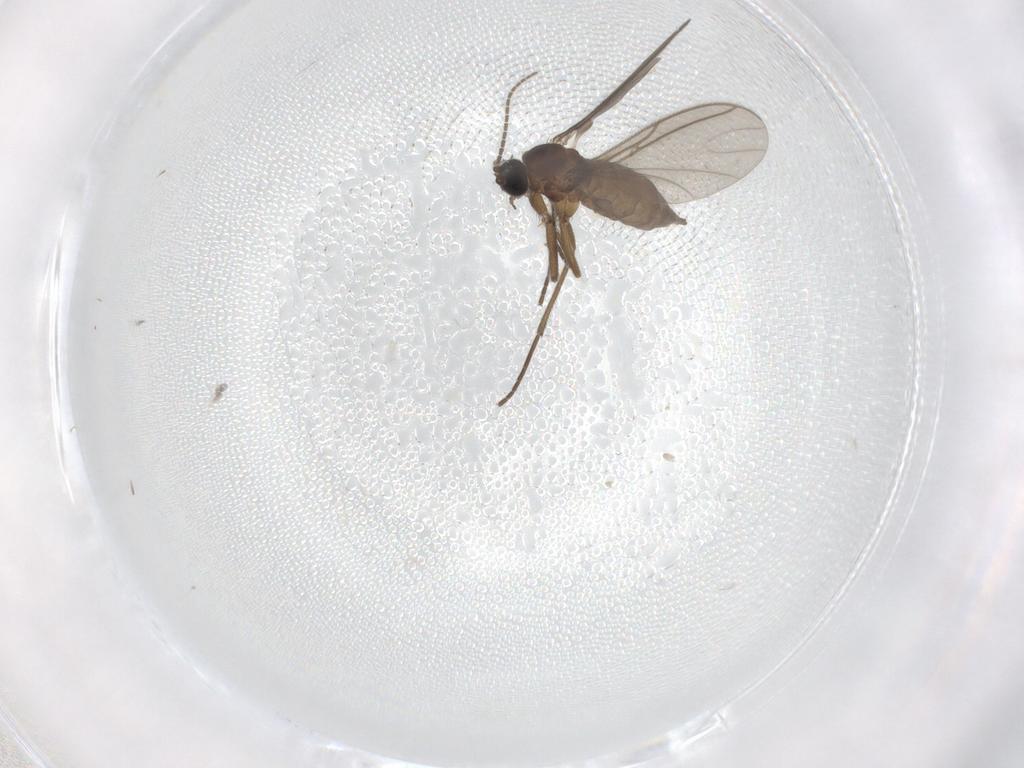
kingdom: Animalia
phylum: Arthropoda
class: Insecta
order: Diptera
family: Sciaridae
